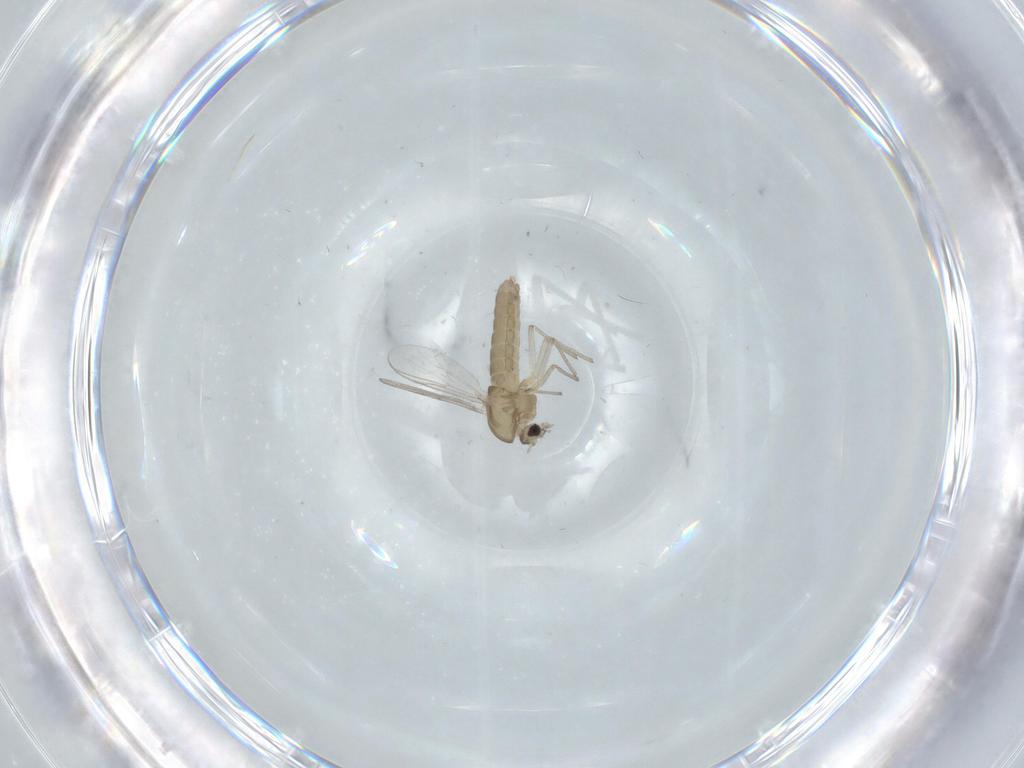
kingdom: Animalia
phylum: Arthropoda
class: Insecta
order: Diptera
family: Chironomidae
